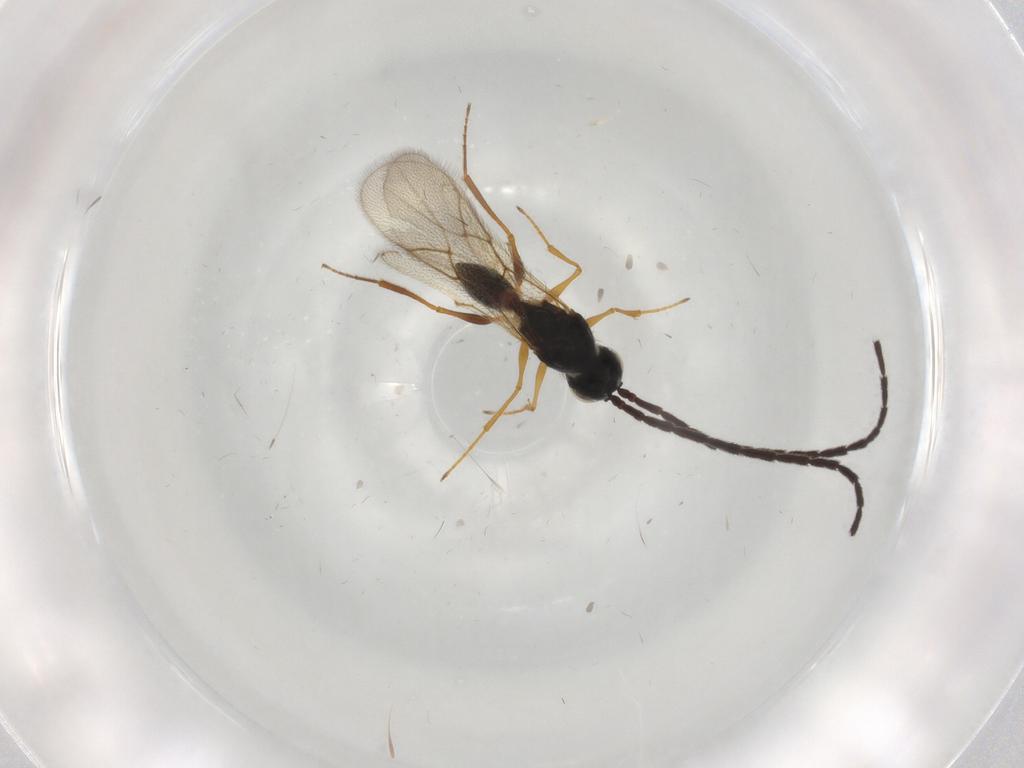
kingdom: Animalia
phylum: Arthropoda
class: Insecta
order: Hymenoptera
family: Figitidae
